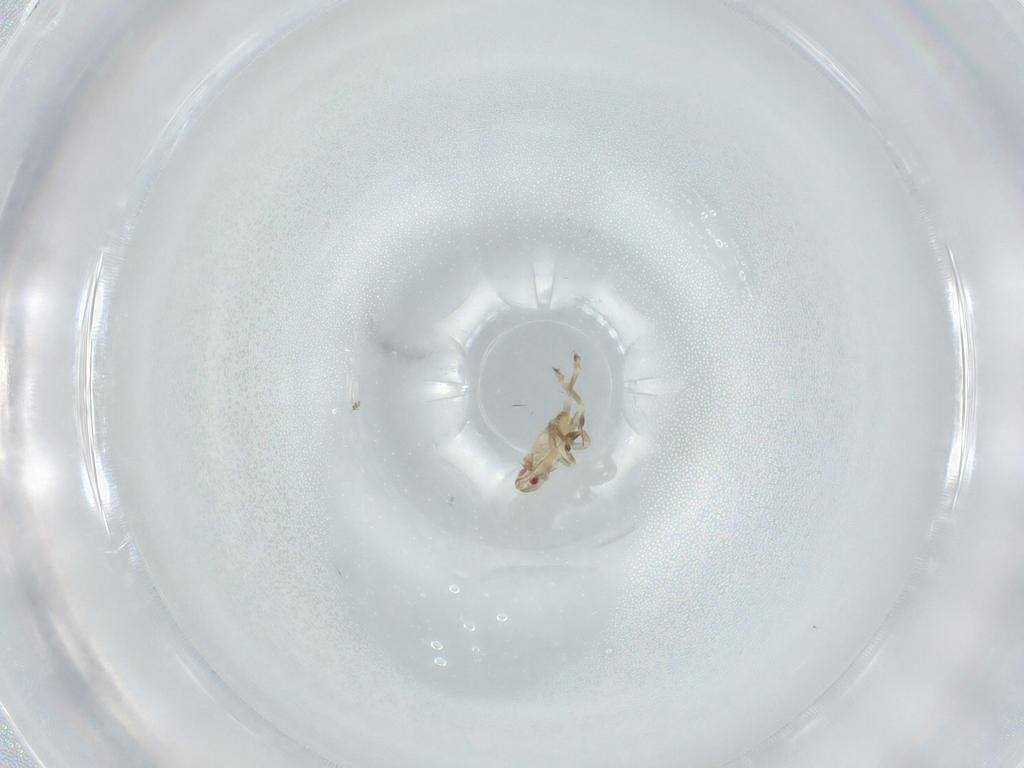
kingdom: Animalia
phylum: Arthropoda
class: Insecta
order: Hemiptera
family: Flatidae
